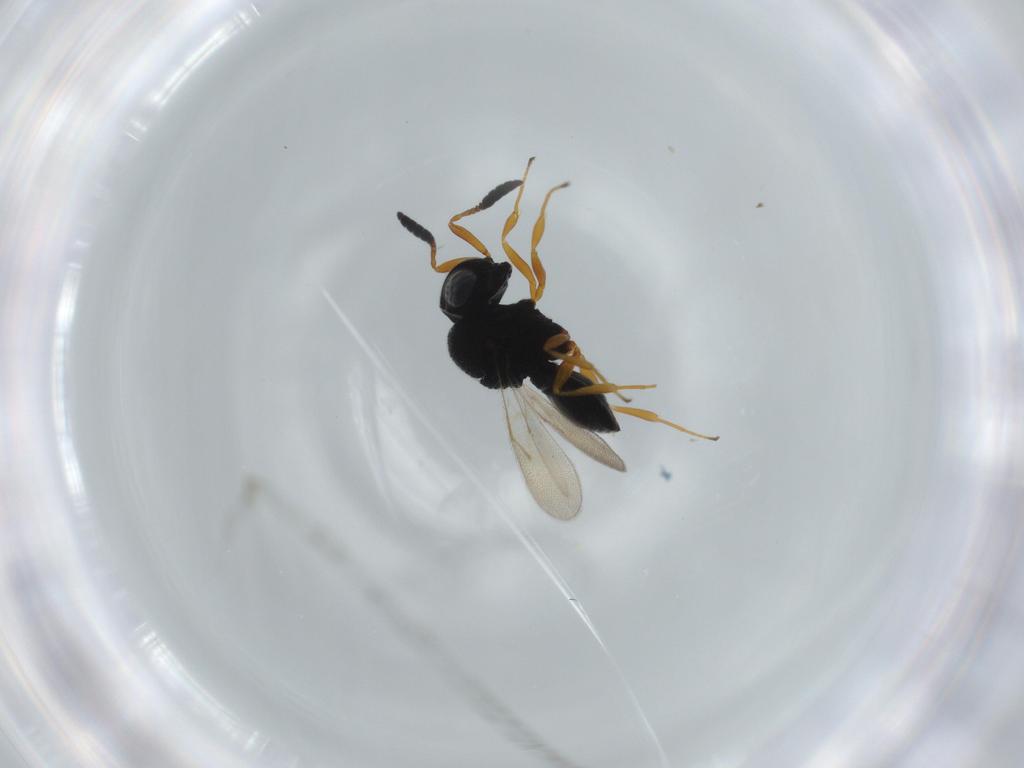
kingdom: Animalia
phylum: Arthropoda
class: Insecta
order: Hymenoptera
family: Scelionidae
